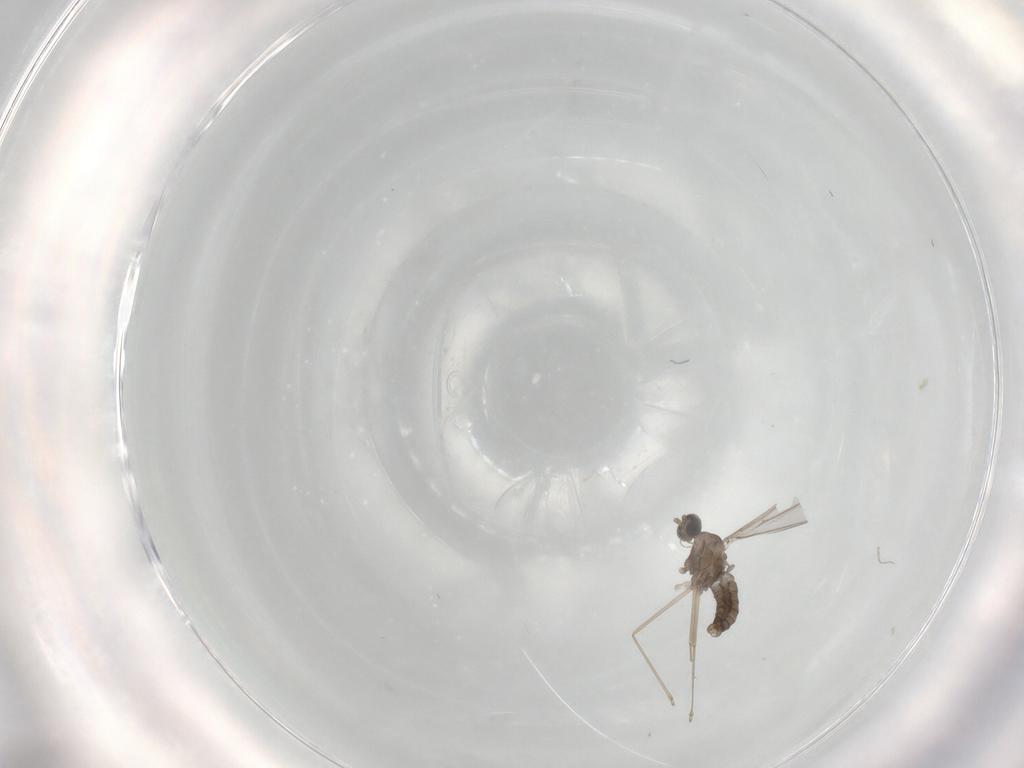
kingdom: Animalia
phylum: Arthropoda
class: Insecta
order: Diptera
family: Cecidomyiidae
